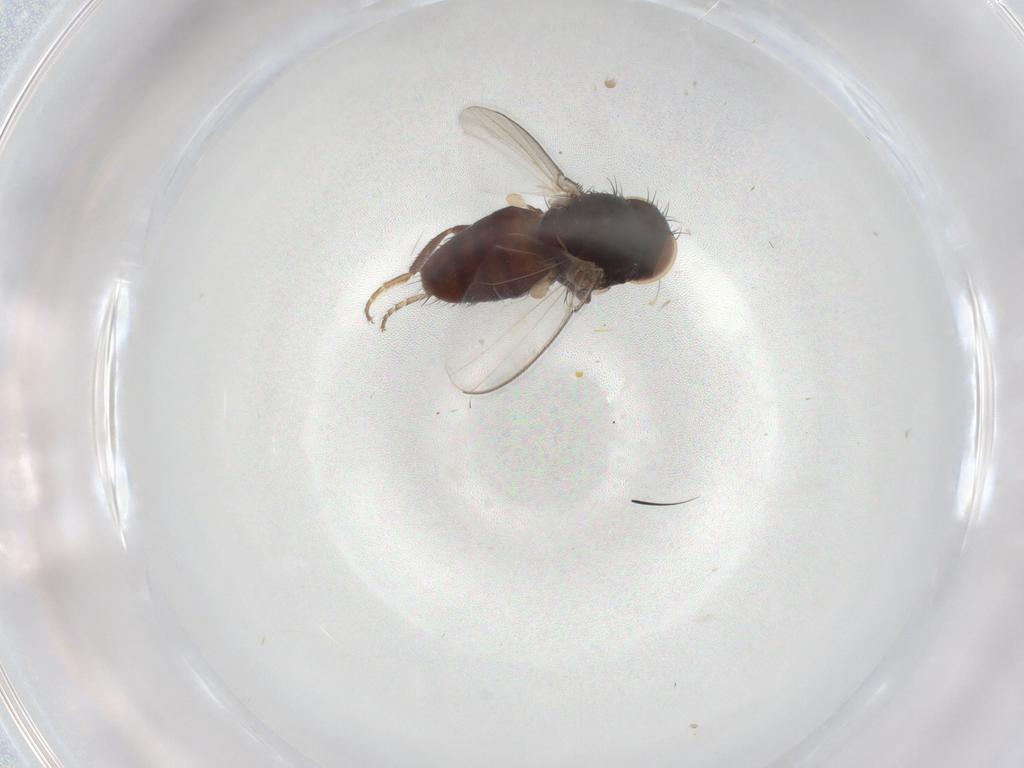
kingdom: Animalia
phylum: Arthropoda
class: Insecta
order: Diptera
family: Milichiidae
